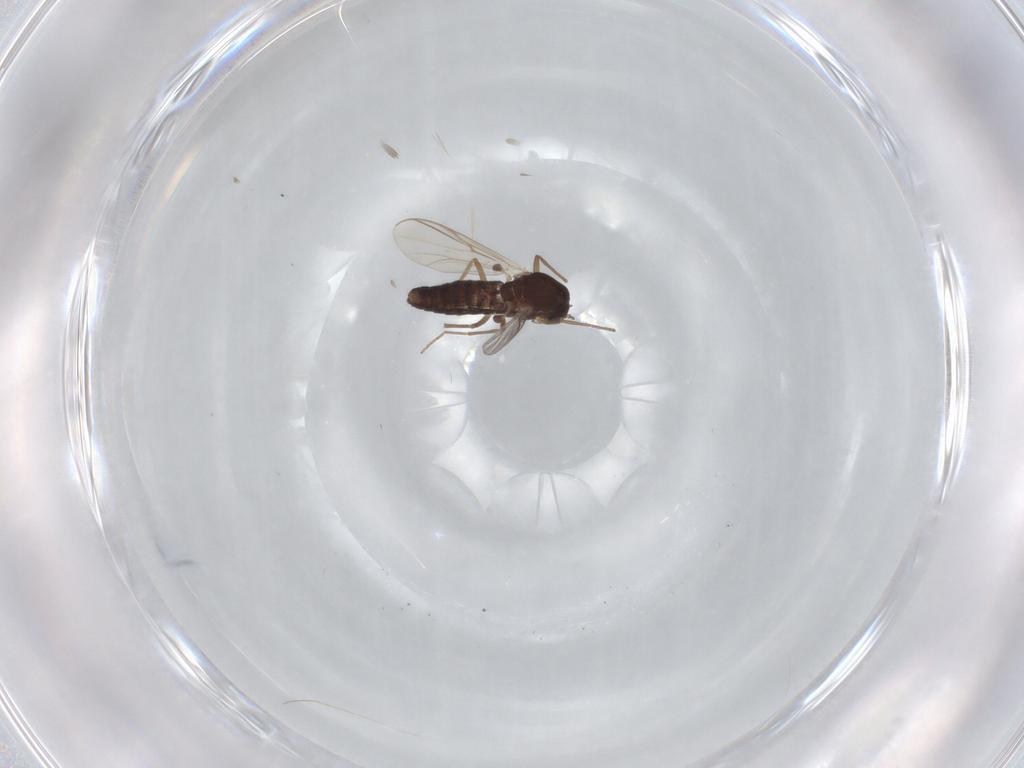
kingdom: Animalia
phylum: Arthropoda
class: Insecta
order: Diptera
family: Chironomidae
